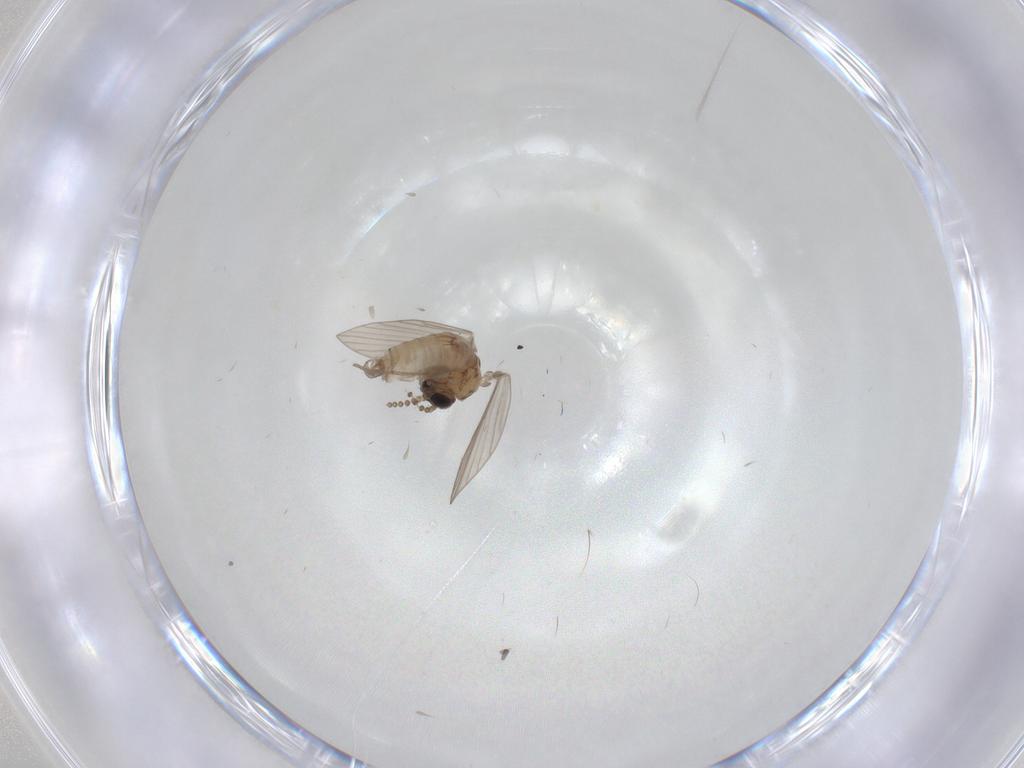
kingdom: Animalia
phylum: Arthropoda
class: Insecta
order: Diptera
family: Psychodidae
